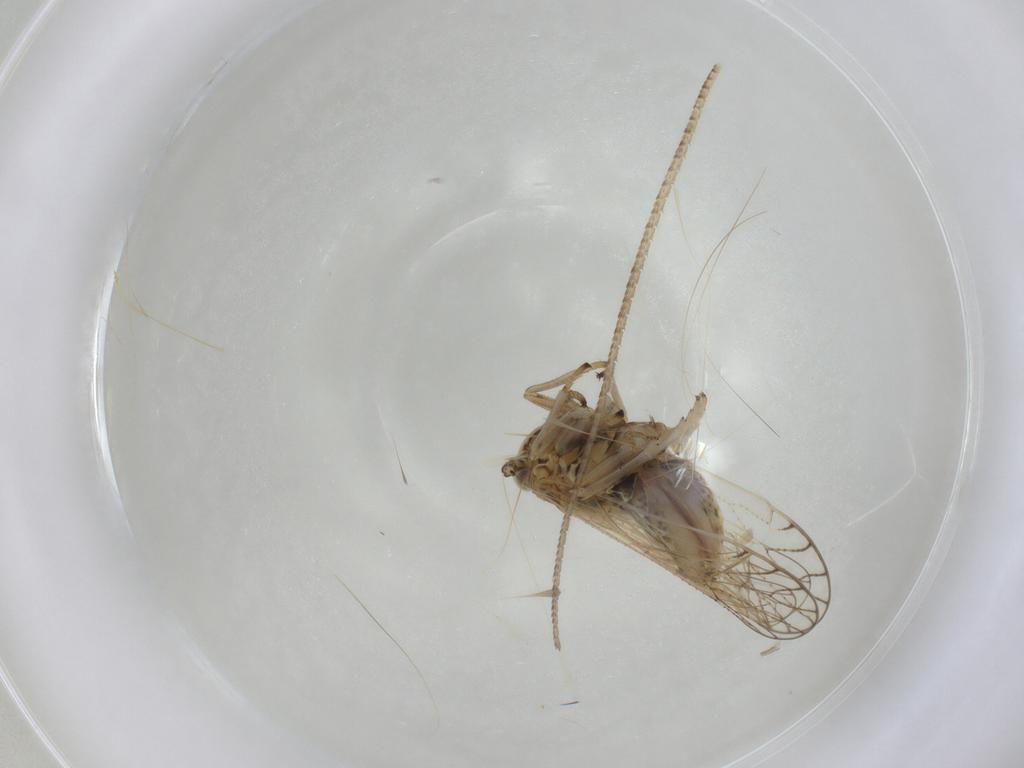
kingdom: Animalia
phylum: Arthropoda
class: Insecta
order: Lepidoptera
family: Pterophoridae
